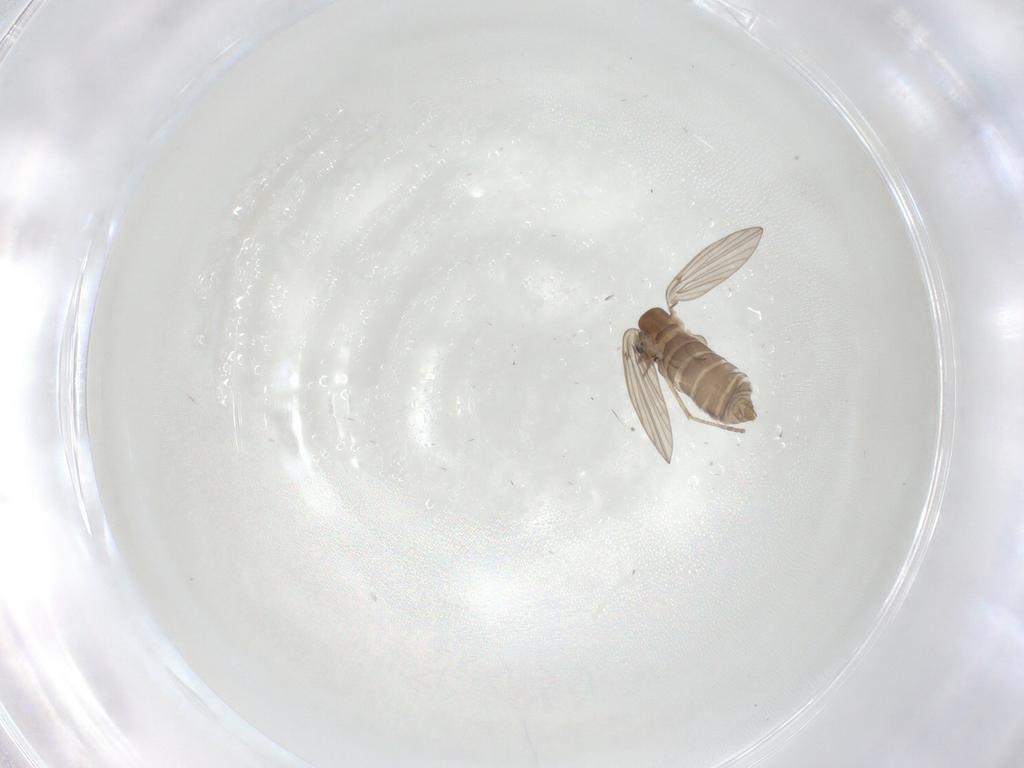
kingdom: Animalia
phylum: Arthropoda
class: Insecta
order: Diptera
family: Psychodidae
